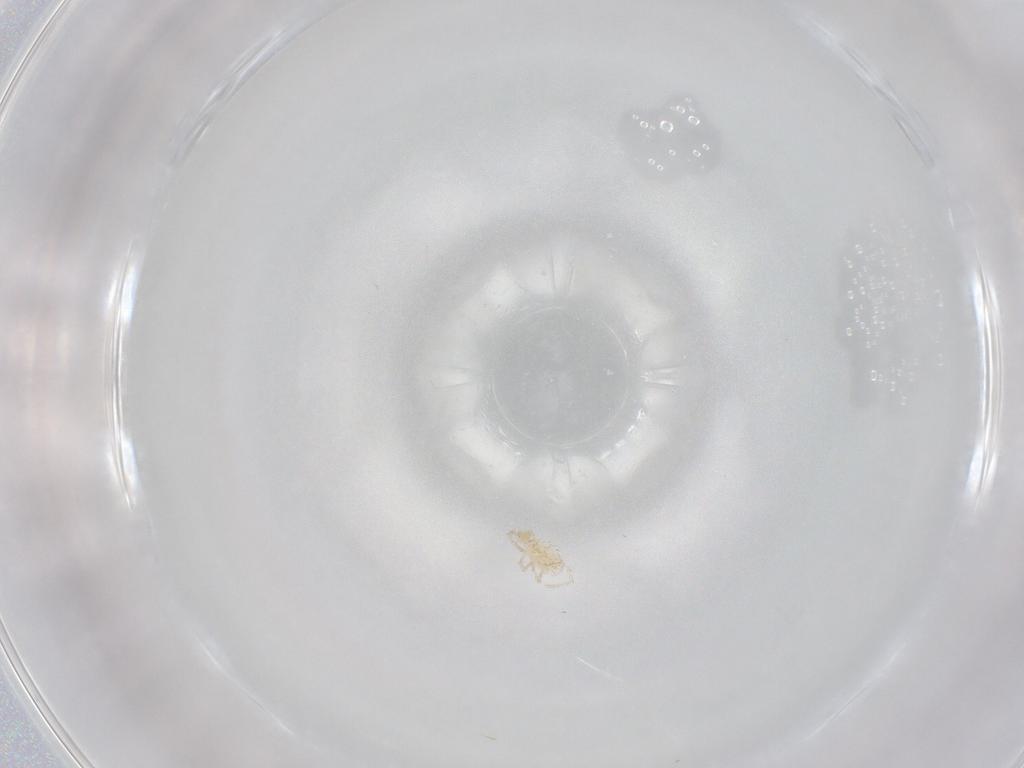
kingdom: Animalia
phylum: Arthropoda
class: Arachnida
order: Trombidiformes
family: Erythraeidae
